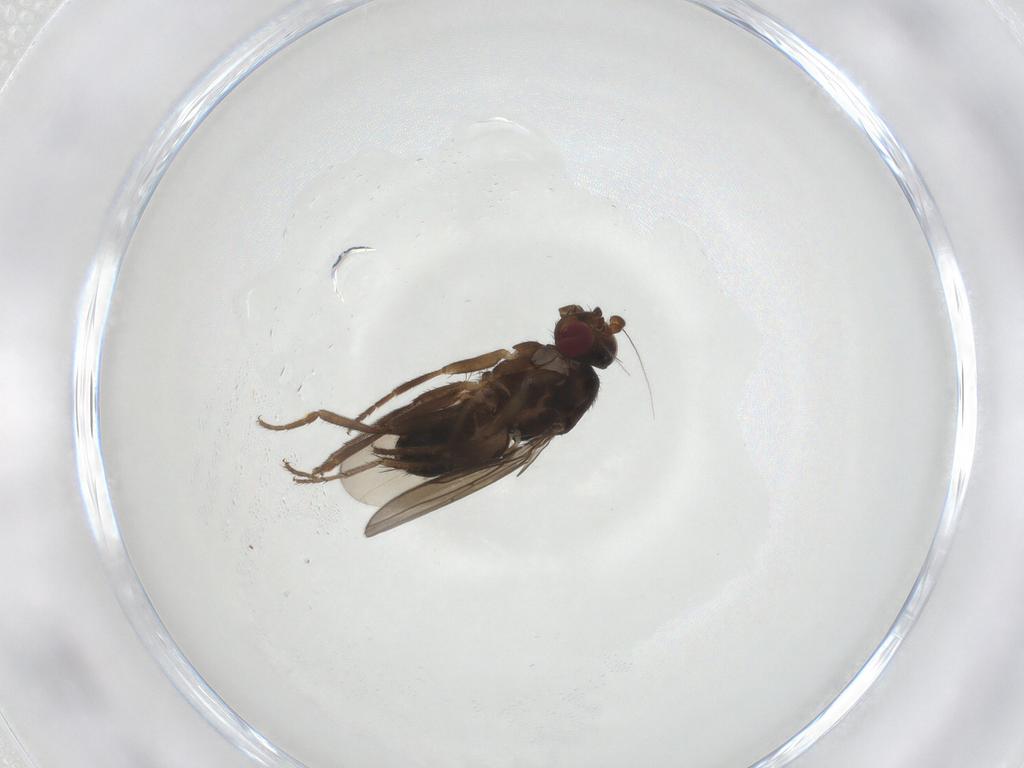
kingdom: Animalia
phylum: Arthropoda
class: Insecta
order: Diptera
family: Sphaeroceridae
